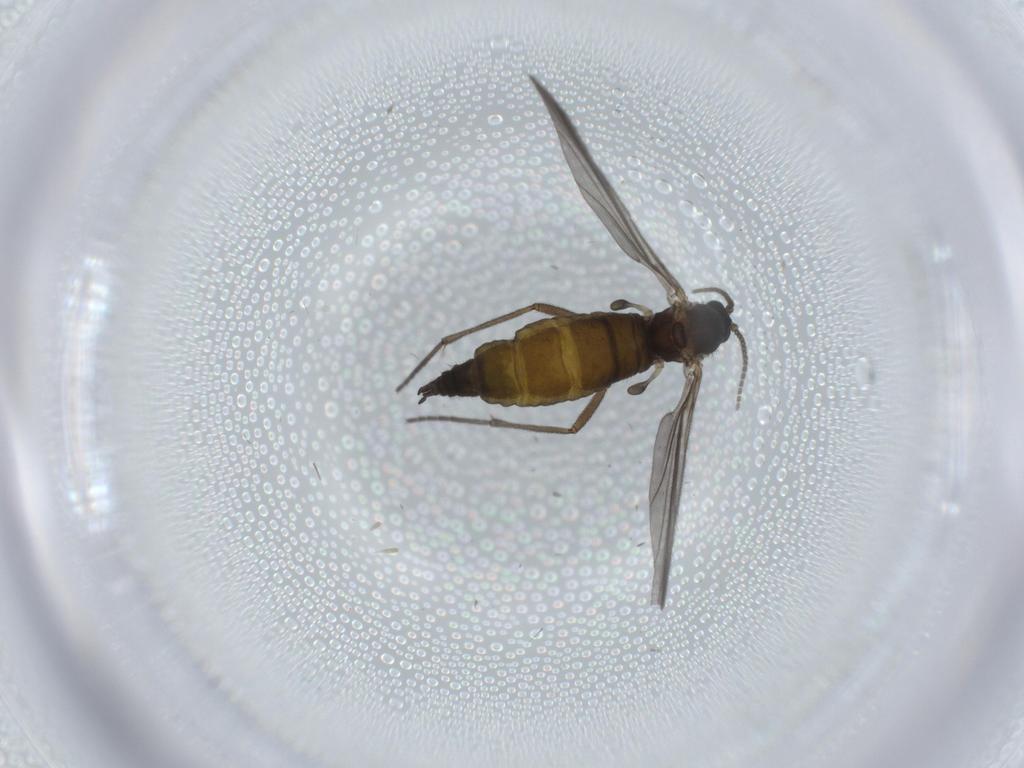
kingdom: Animalia
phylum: Arthropoda
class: Insecta
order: Diptera
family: Sciaridae
